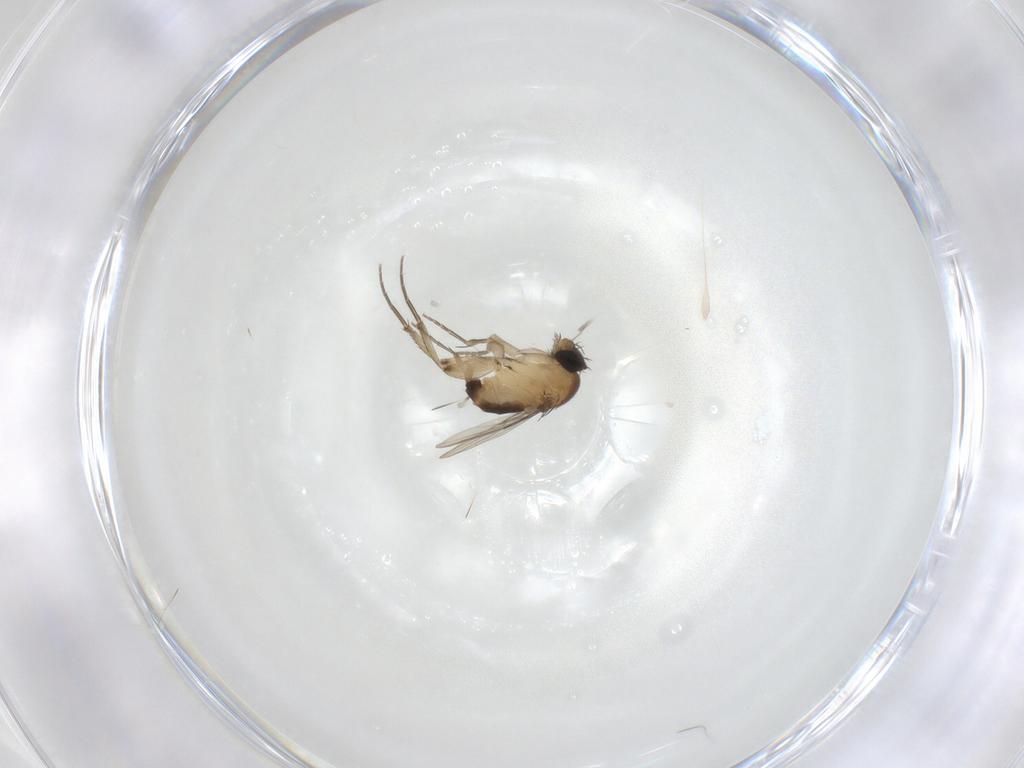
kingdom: Animalia
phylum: Arthropoda
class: Insecta
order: Diptera
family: Phoridae
